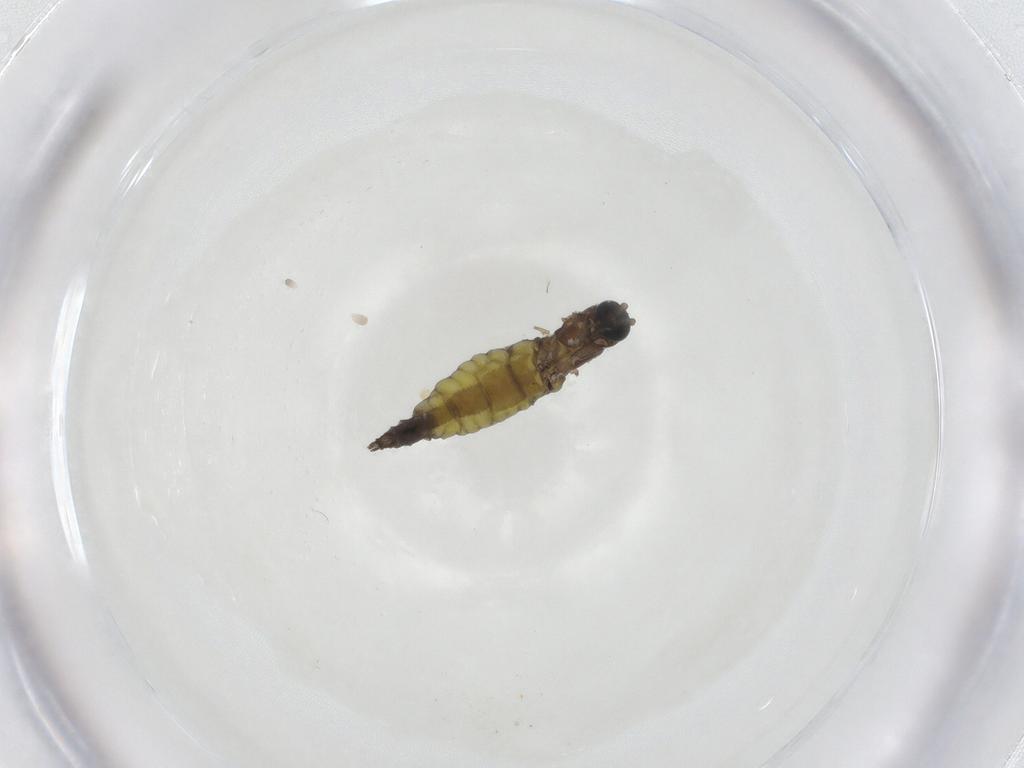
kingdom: Animalia
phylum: Arthropoda
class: Insecta
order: Diptera
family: Sciaridae
